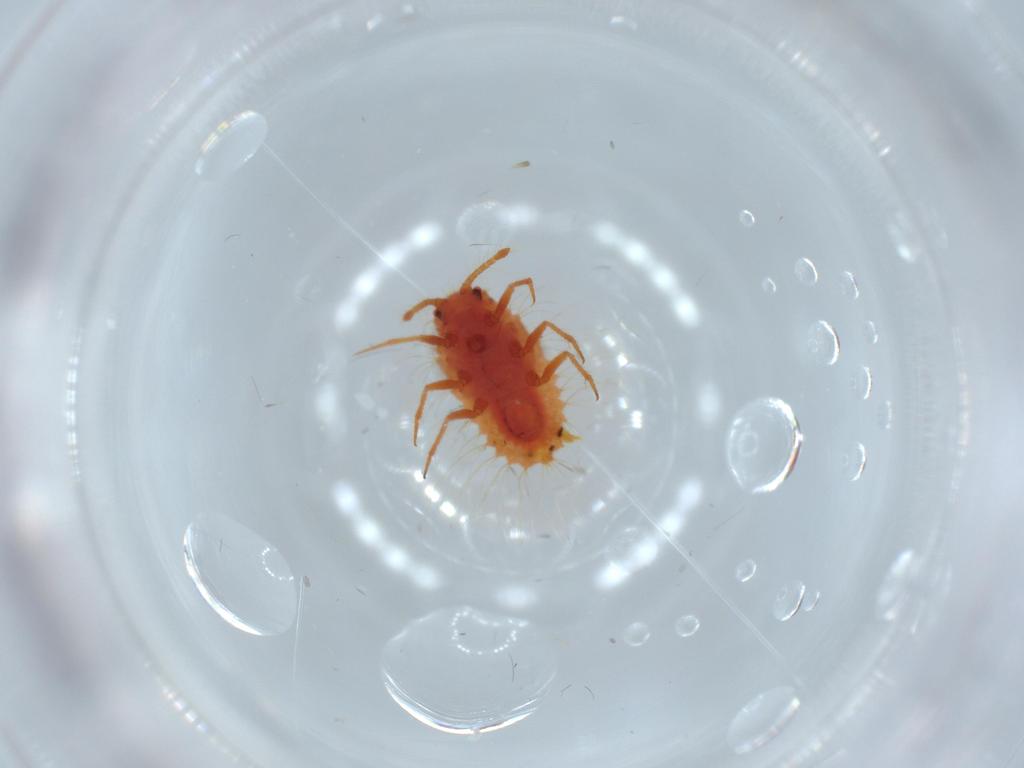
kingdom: Animalia
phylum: Arthropoda
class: Insecta
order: Hemiptera
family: Coccoidea_incertae_sedis
